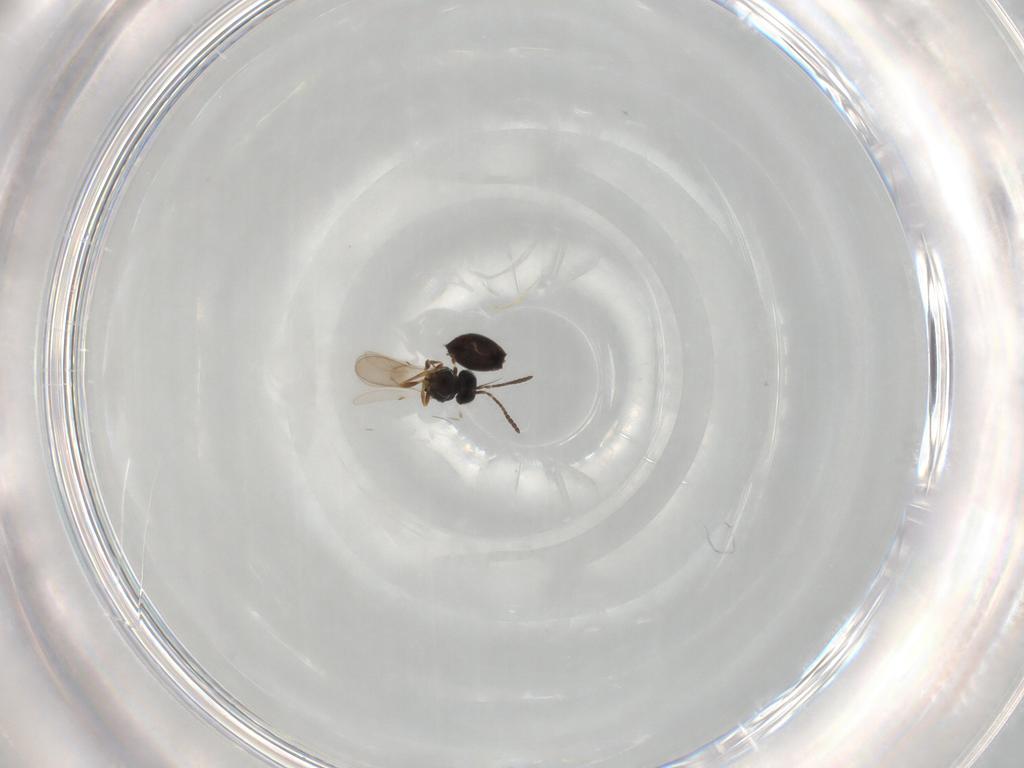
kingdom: Animalia
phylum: Arthropoda
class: Insecta
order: Hymenoptera
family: Scelionidae
